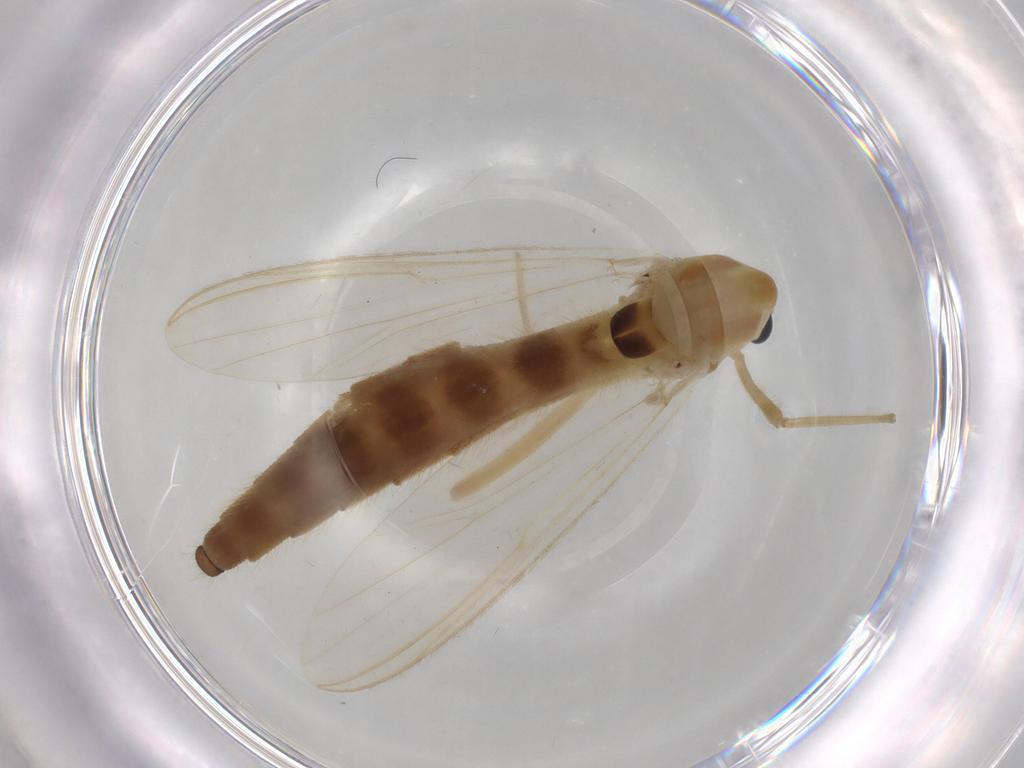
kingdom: Animalia
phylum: Arthropoda
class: Insecta
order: Diptera
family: Chironomidae
